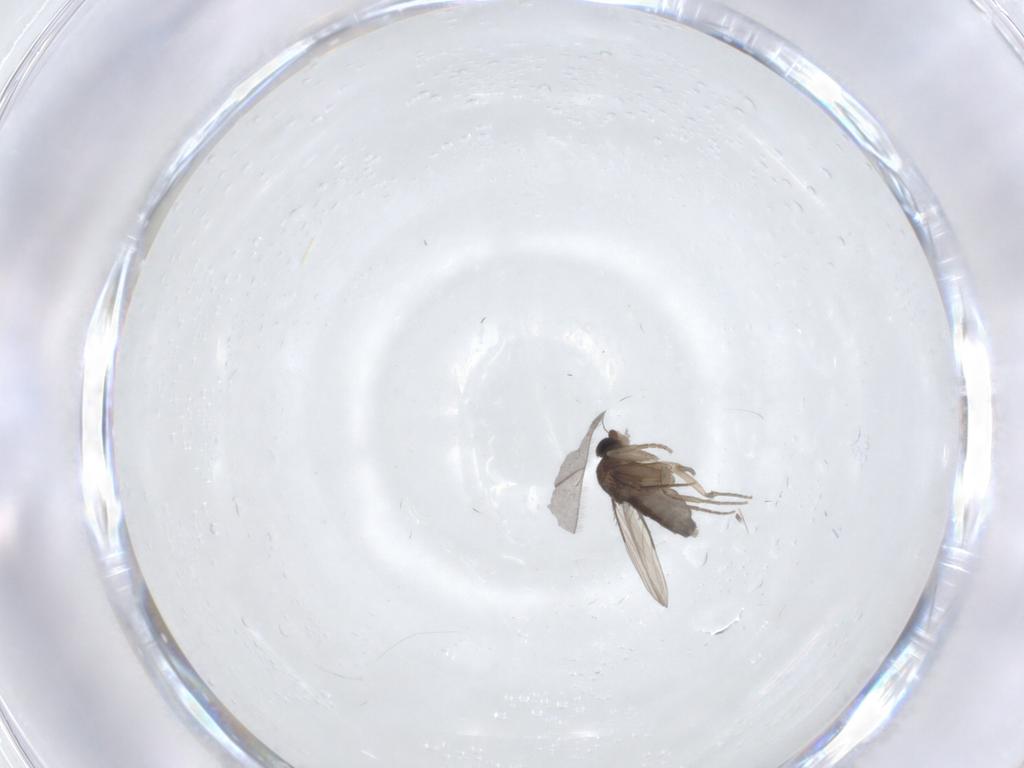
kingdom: Animalia
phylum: Arthropoda
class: Insecta
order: Diptera
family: Phoridae
